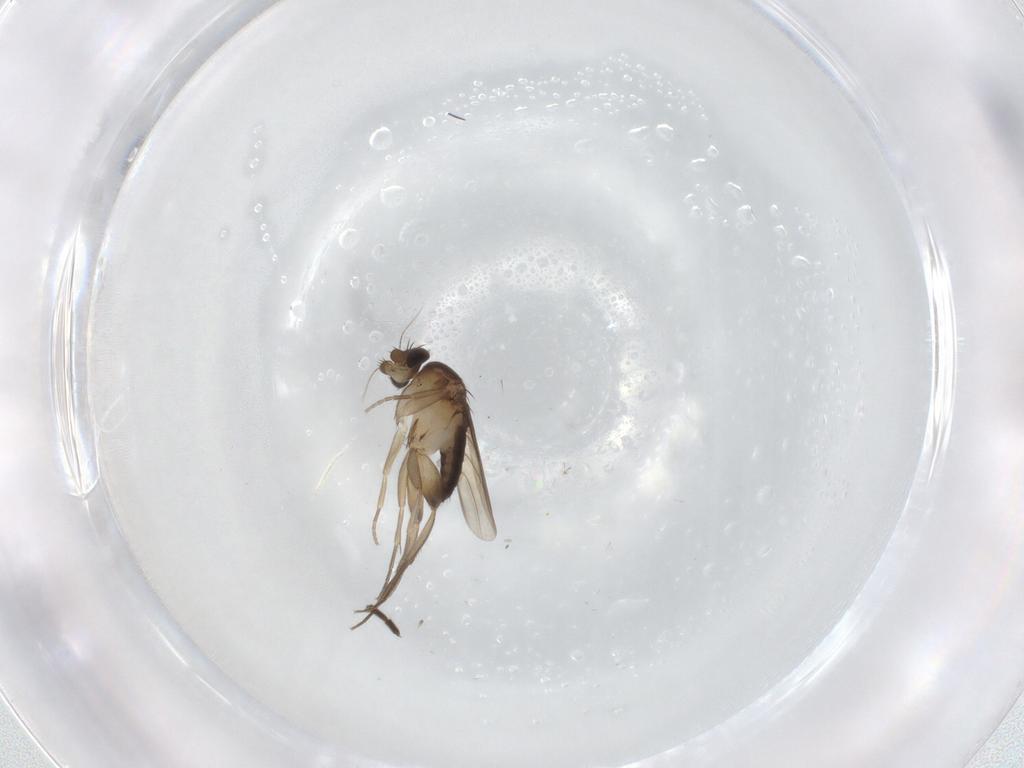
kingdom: Animalia
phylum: Arthropoda
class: Insecta
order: Diptera
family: Phoridae
